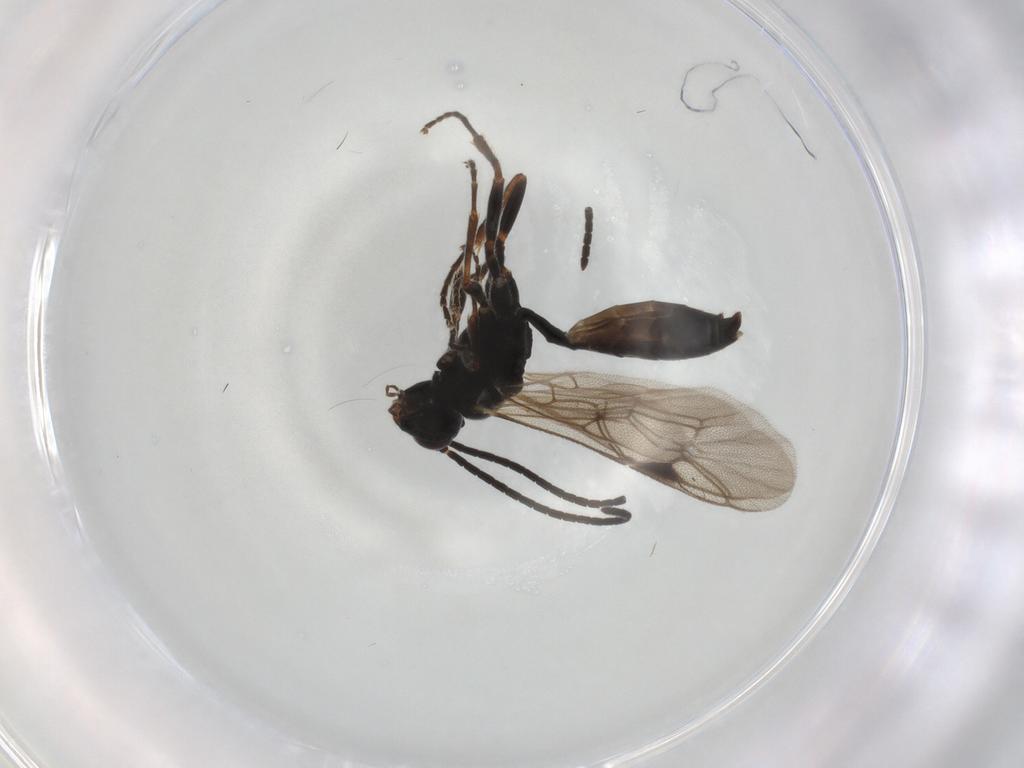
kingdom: Animalia
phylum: Arthropoda
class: Insecta
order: Hymenoptera
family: Ichneumonidae
